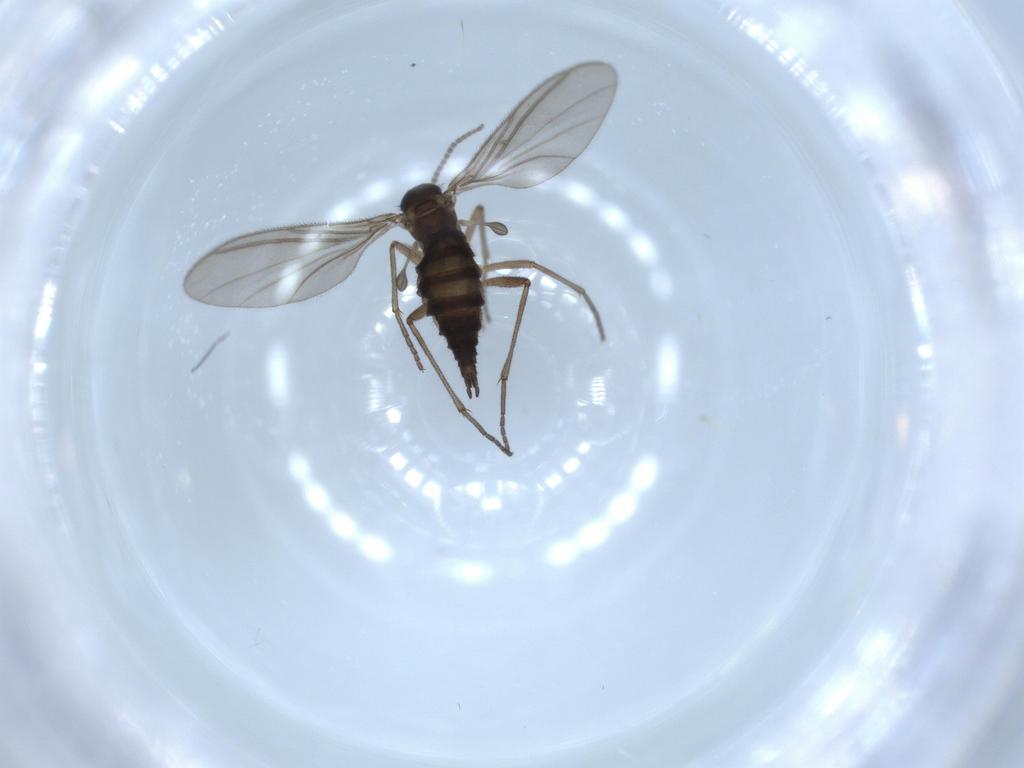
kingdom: Animalia
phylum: Arthropoda
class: Insecta
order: Diptera
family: Sciaridae
